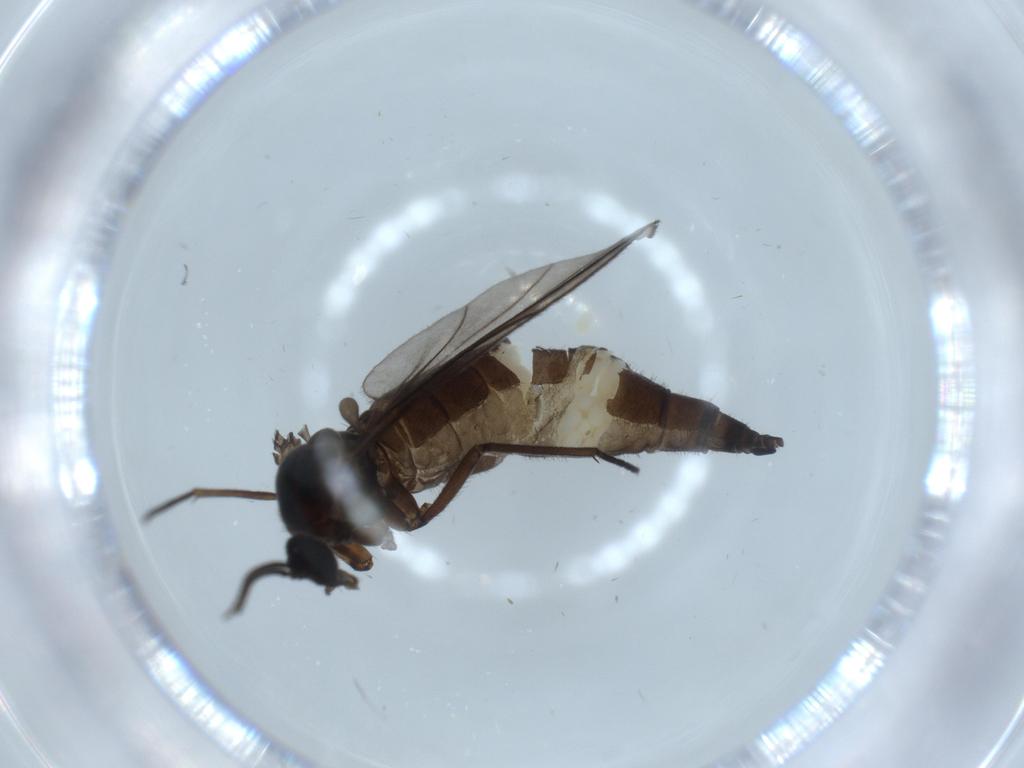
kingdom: Animalia
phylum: Arthropoda
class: Insecta
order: Diptera
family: Sciaridae
